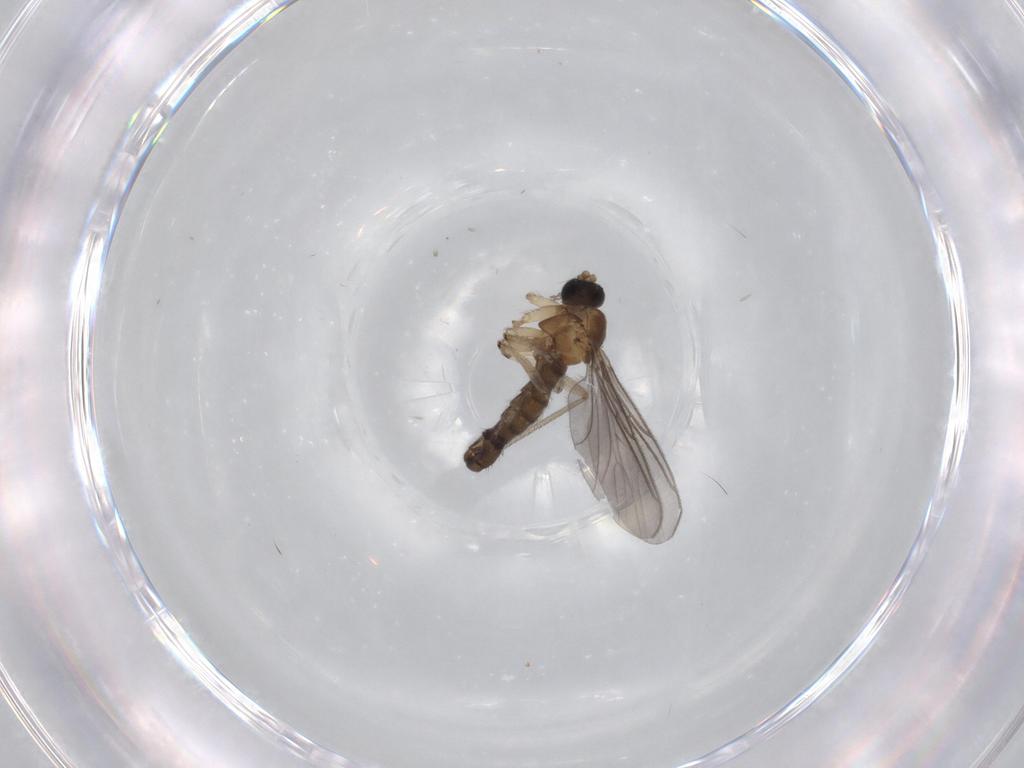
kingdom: Animalia
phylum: Arthropoda
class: Insecta
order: Diptera
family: Sciaridae
